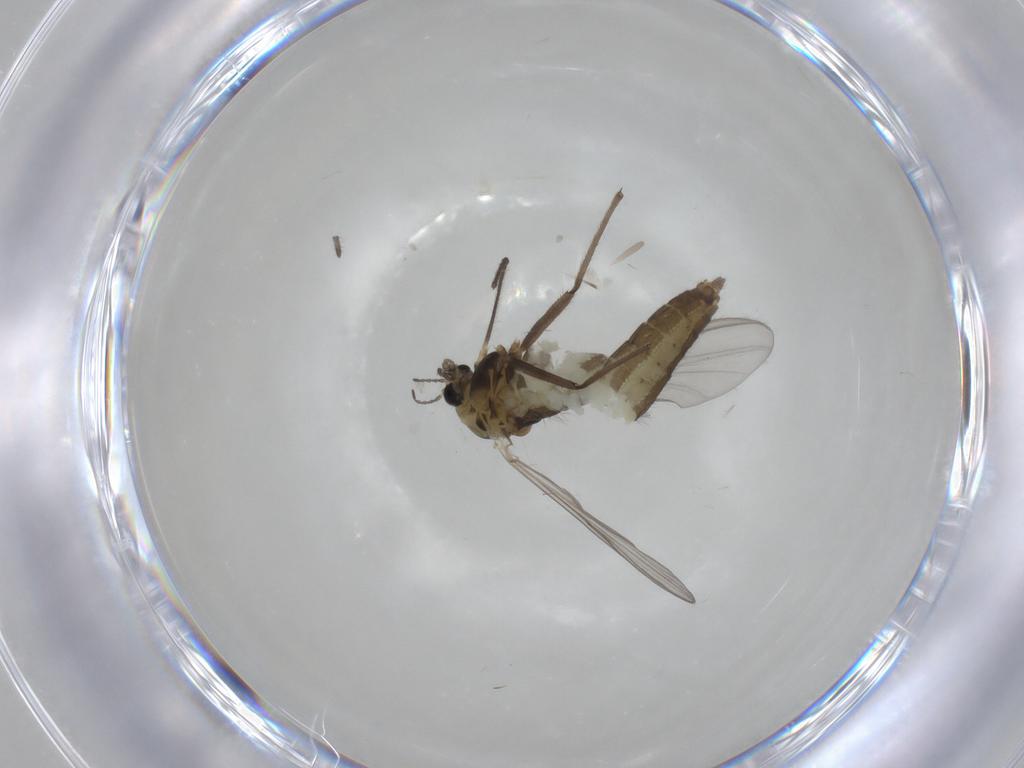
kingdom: Animalia
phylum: Arthropoda
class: Insecta
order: Diptera
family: Chironomidae
